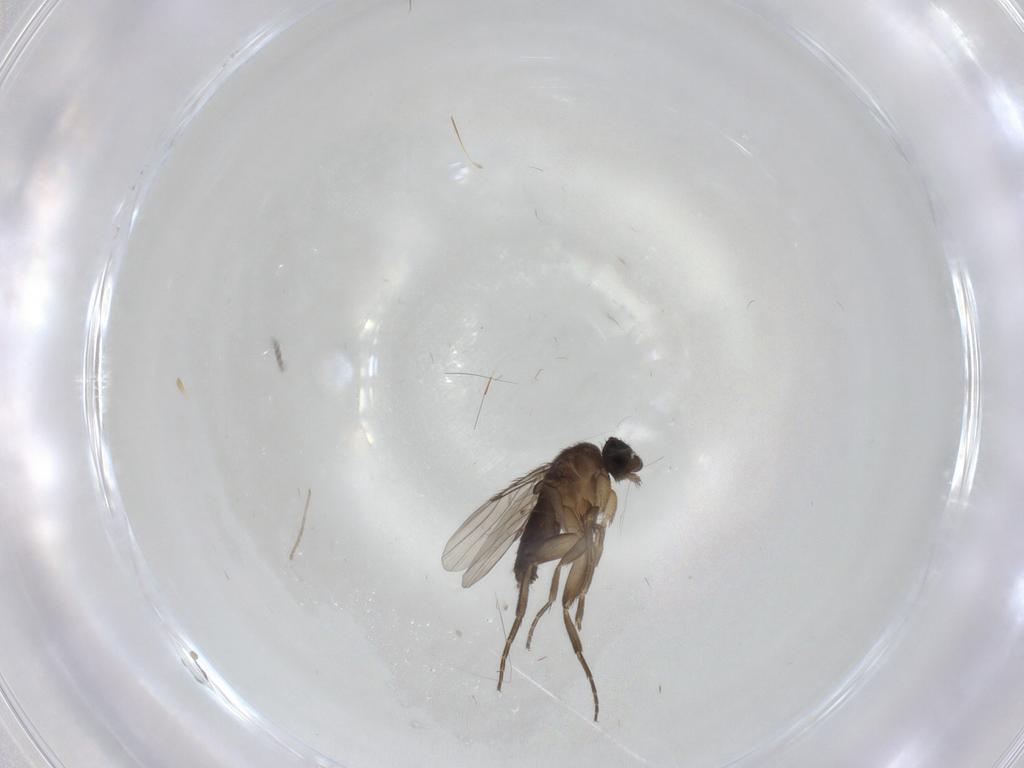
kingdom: Animalia
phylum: Arthropoda
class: Insecta
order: Diptera
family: Phoridae
